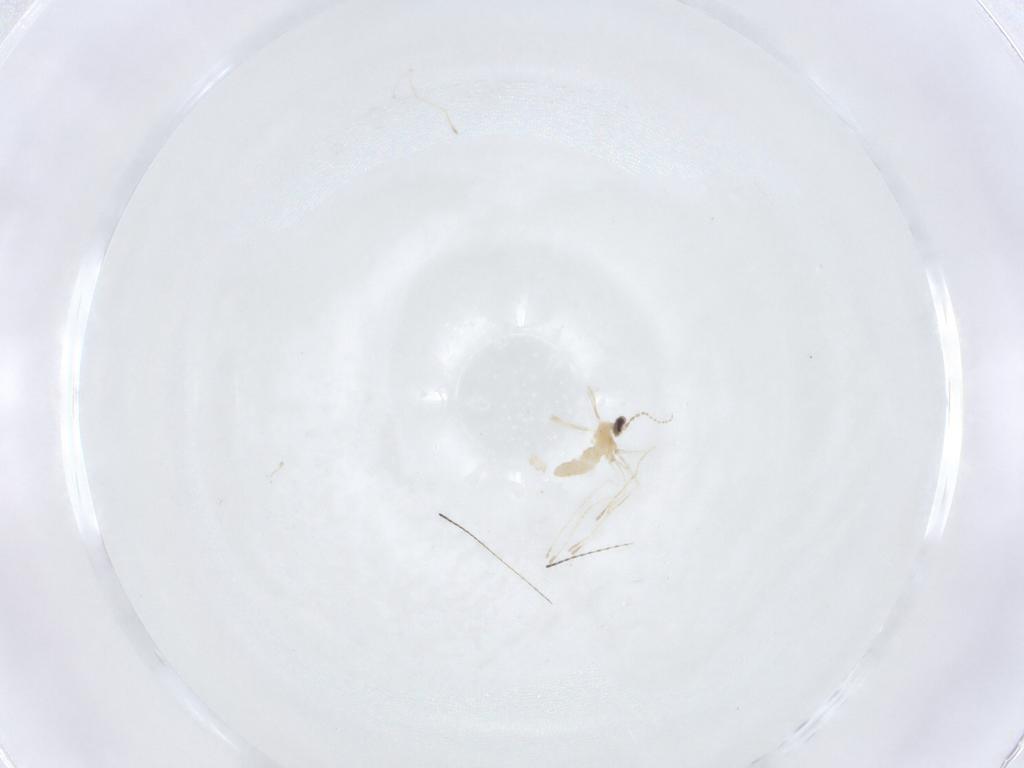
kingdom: Animalia
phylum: Arthropoda
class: Insecta
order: Diptera
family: Cecidomyiidae
